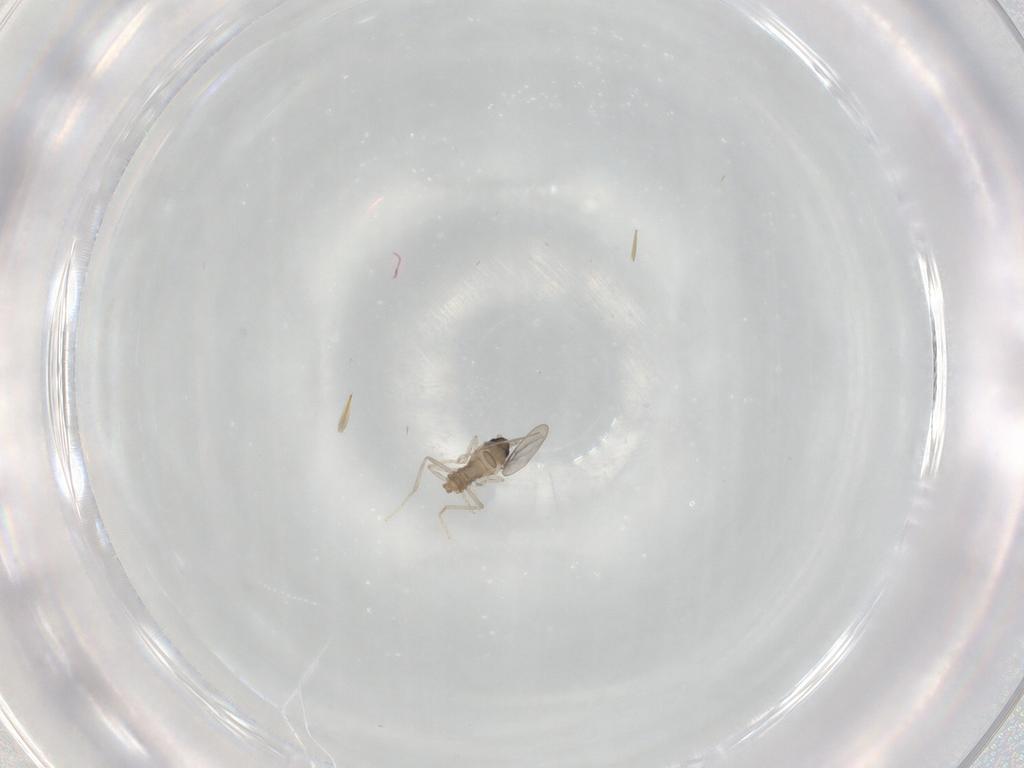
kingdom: Animalia
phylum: Arthropoda
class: Insecta
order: Diptera
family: Cecidomyiidae
